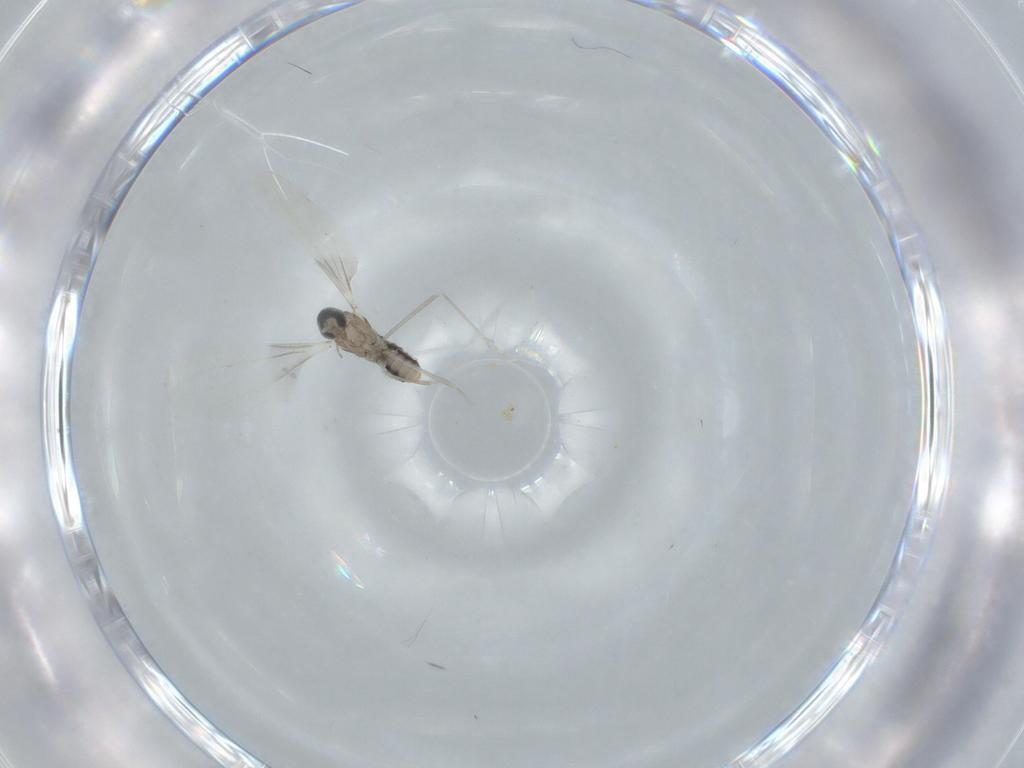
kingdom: Animalia
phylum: Arthropoda
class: Insecta
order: Diptera
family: Cecidomyiidae
